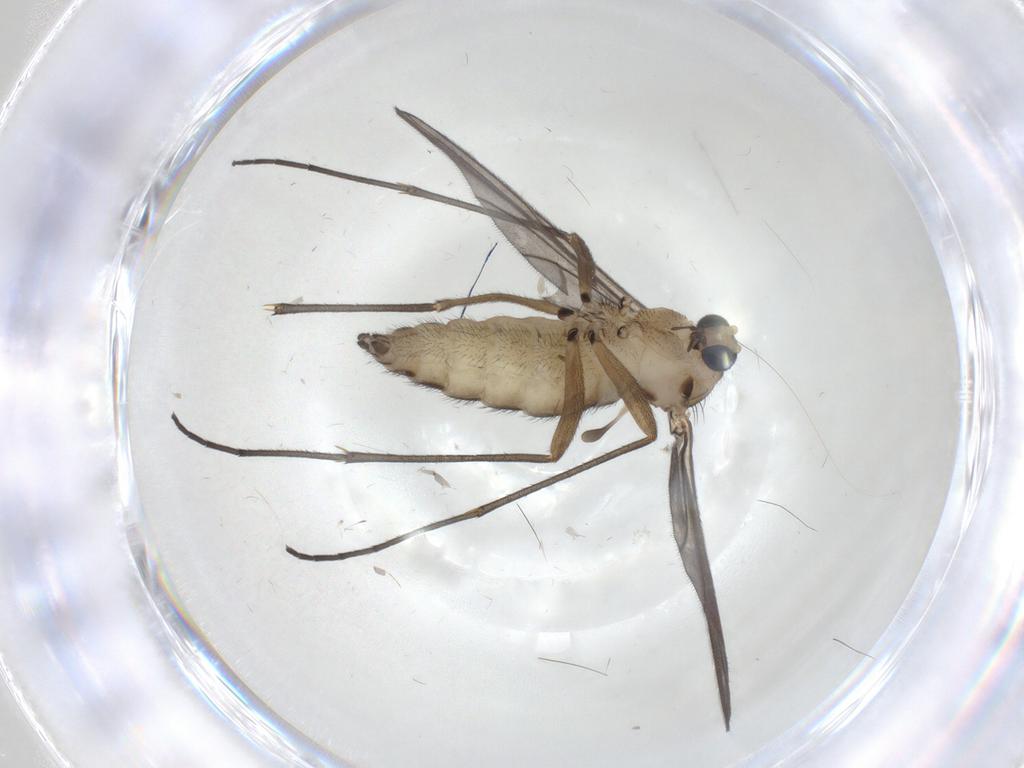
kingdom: Animalia
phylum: Arthropoda
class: Insecta
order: Diptera
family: Sciaridae
